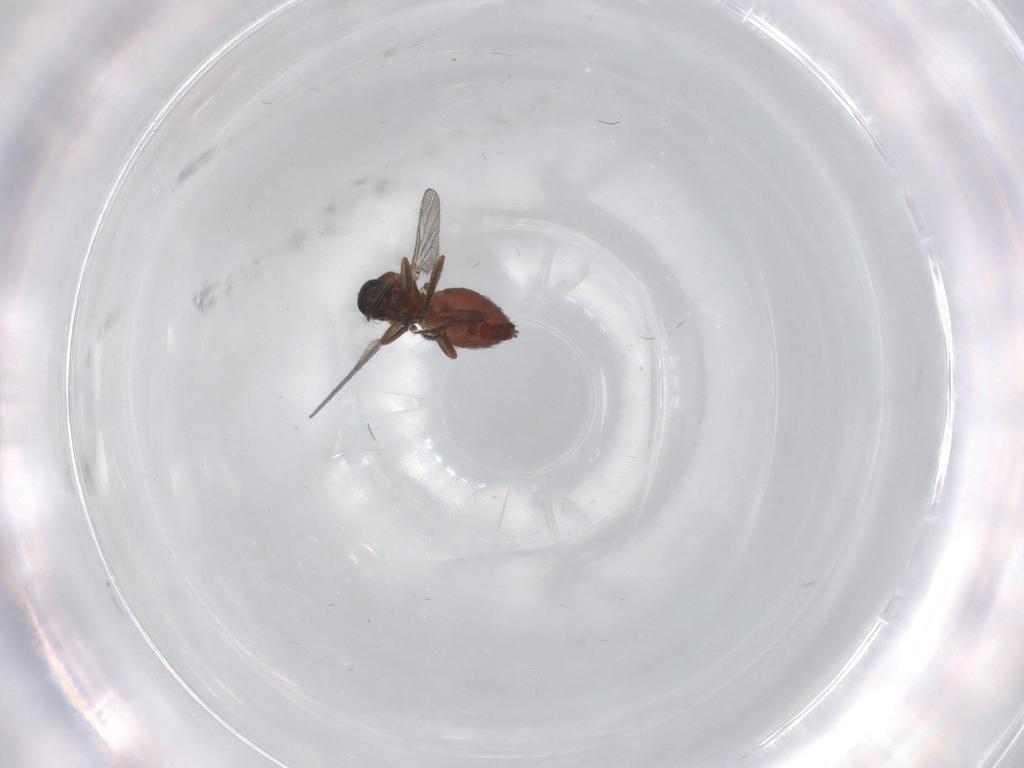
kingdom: Animalia
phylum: Arthropoda
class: Insecta
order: Diptera
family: Ceratopogonidae
